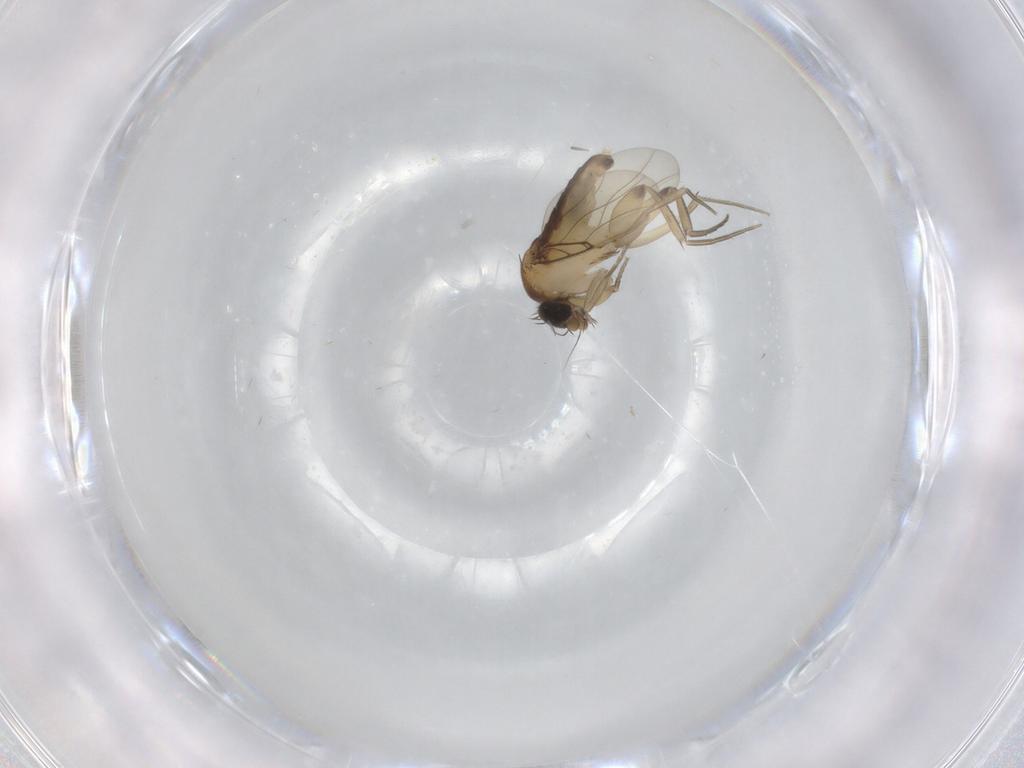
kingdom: Animalia
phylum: Arthropoda
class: Insecta
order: Diptera
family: Phoridae
